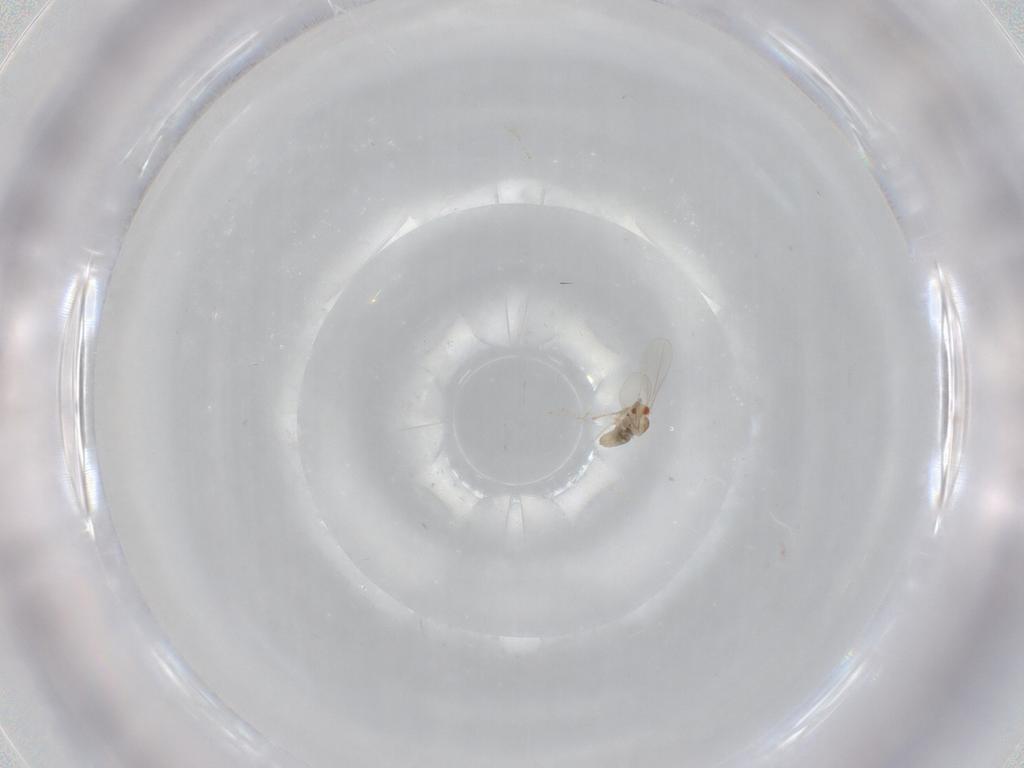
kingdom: Animalia
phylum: Arthropoda
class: Insecta
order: Diptera
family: Cecidomyiidae
